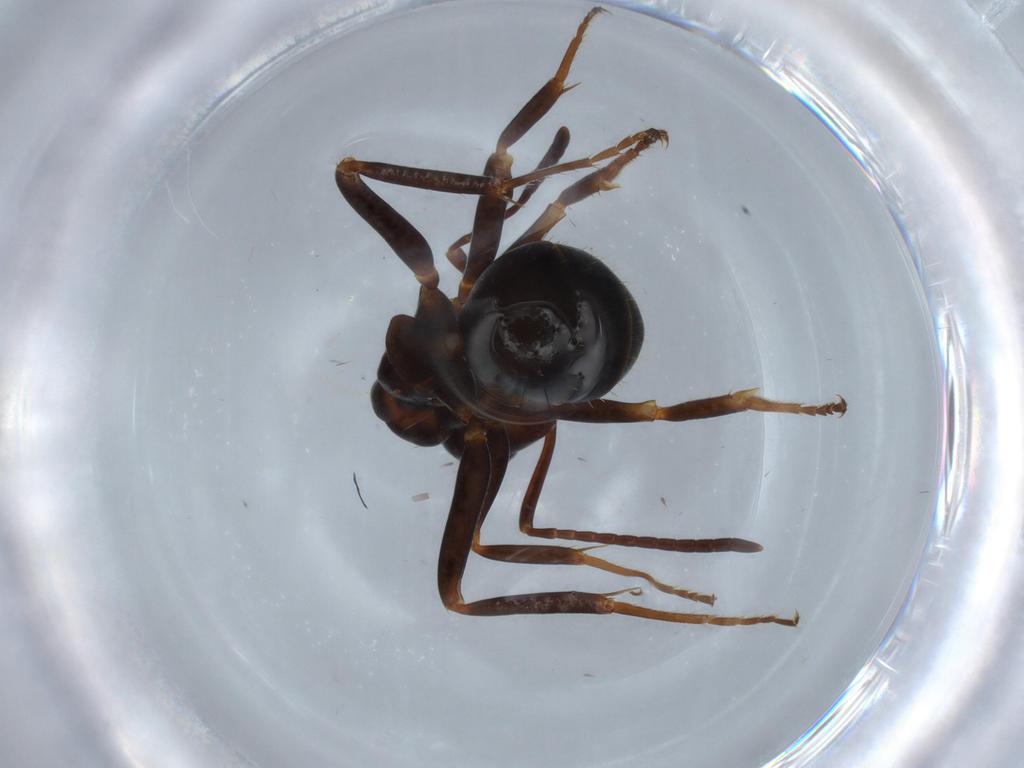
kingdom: Animalia
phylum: Arthropoda
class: Insecta
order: Hymenoptera
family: Formicidae
